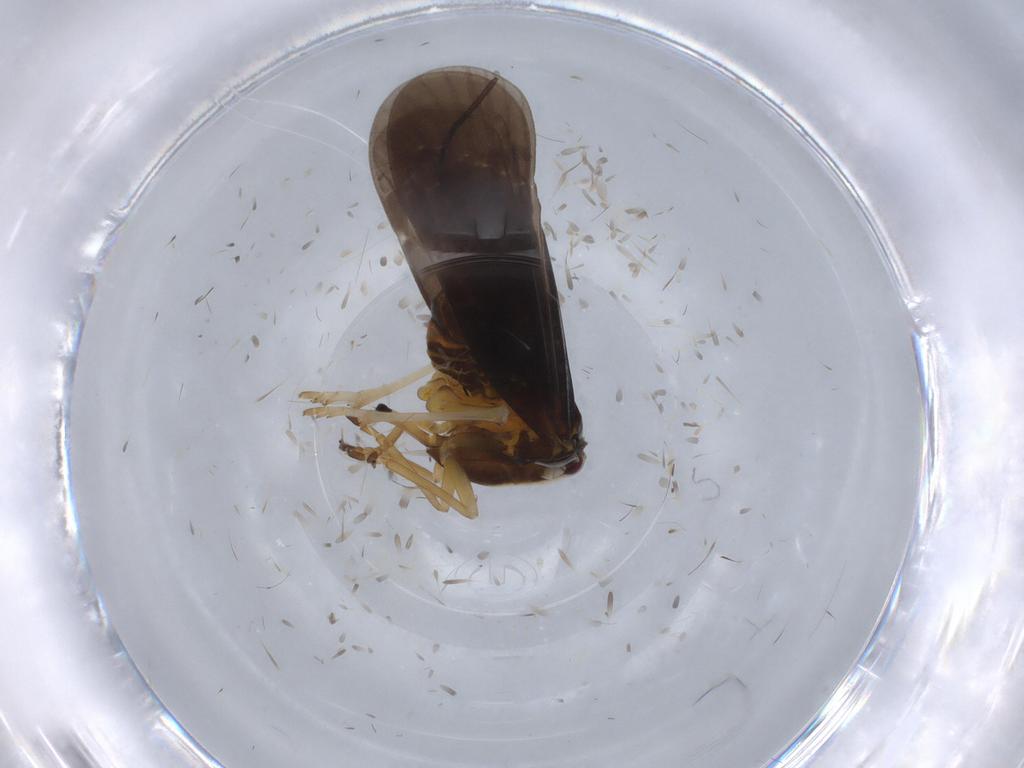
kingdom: Animalia
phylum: Arthropoda
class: Insecta
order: Hemiptera
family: Derbidae
